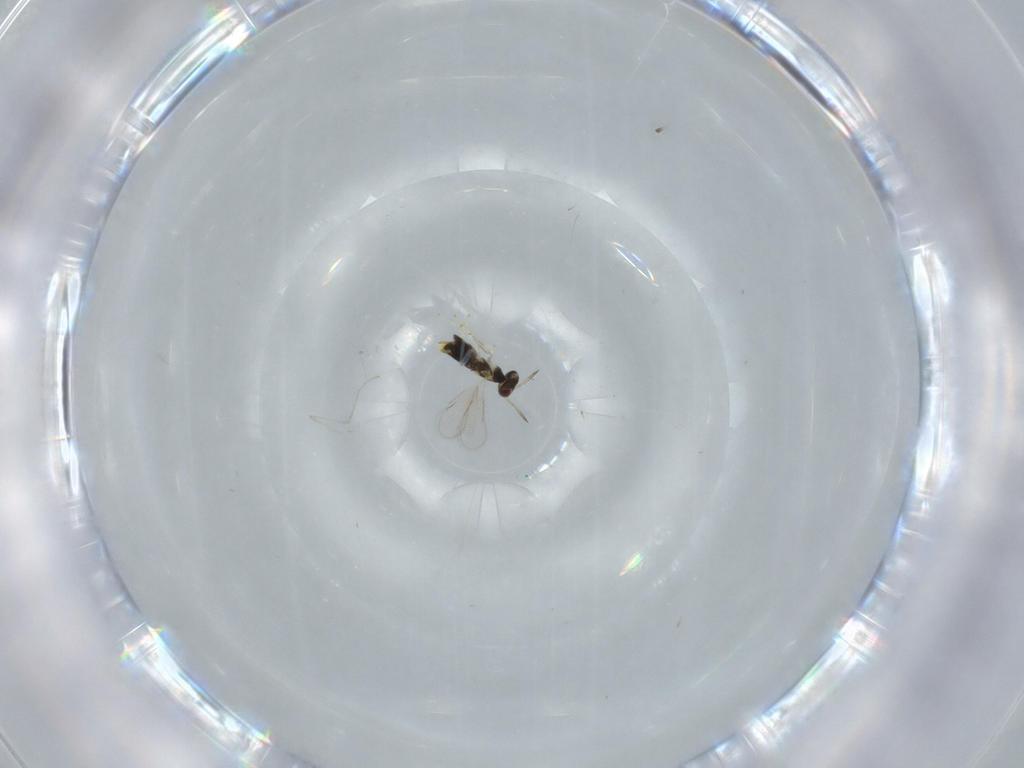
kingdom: Animalia
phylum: Arthropoda
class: Insecta
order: Hymenoptera
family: Aphelinidae
